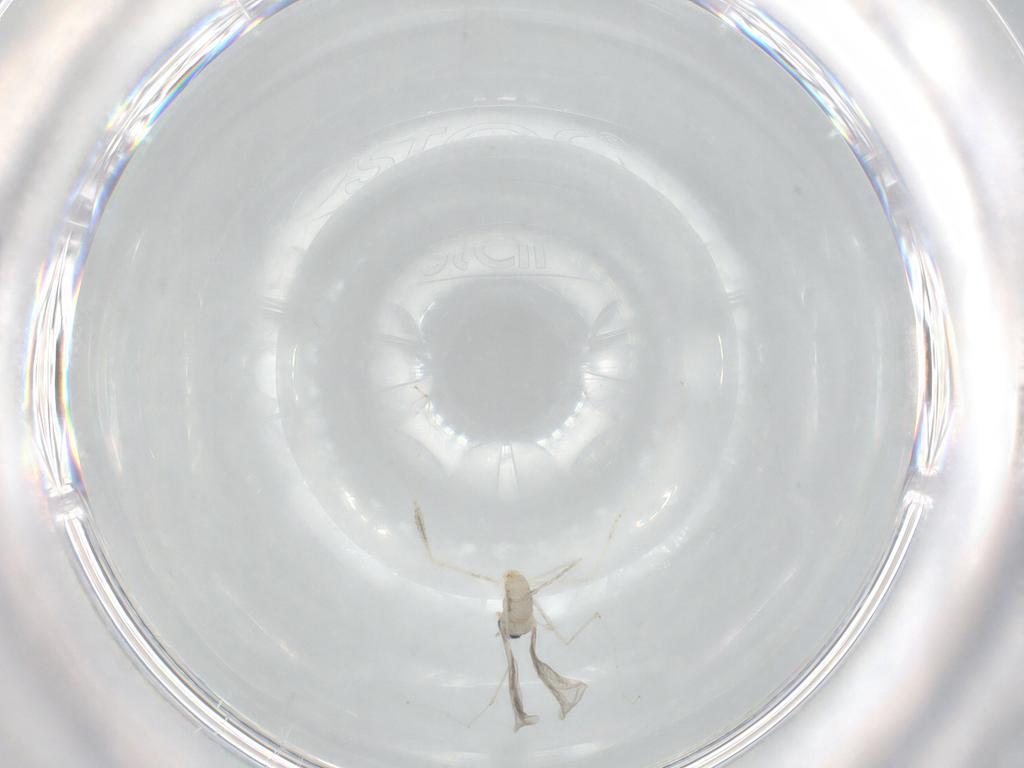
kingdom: Animalia
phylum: Arthropoda
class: Insecta
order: Diptera
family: Cecidomyiidae
